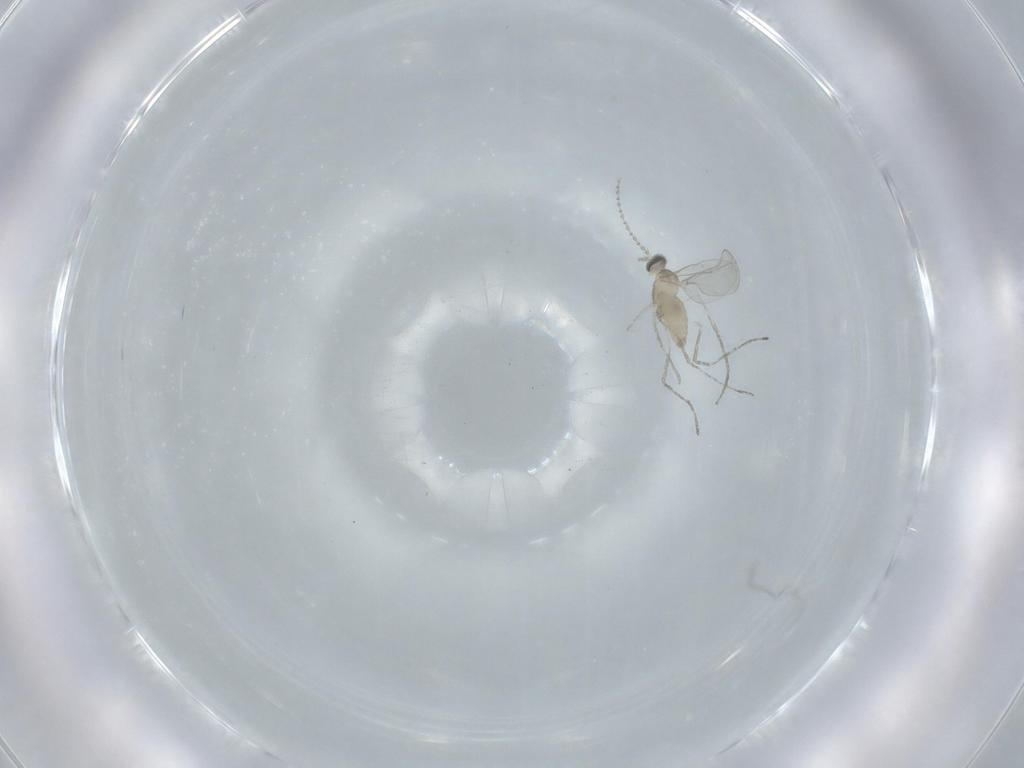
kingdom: Animalia
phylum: Arthropoda
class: Insecta
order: Diptera
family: Cecidomyiidae
